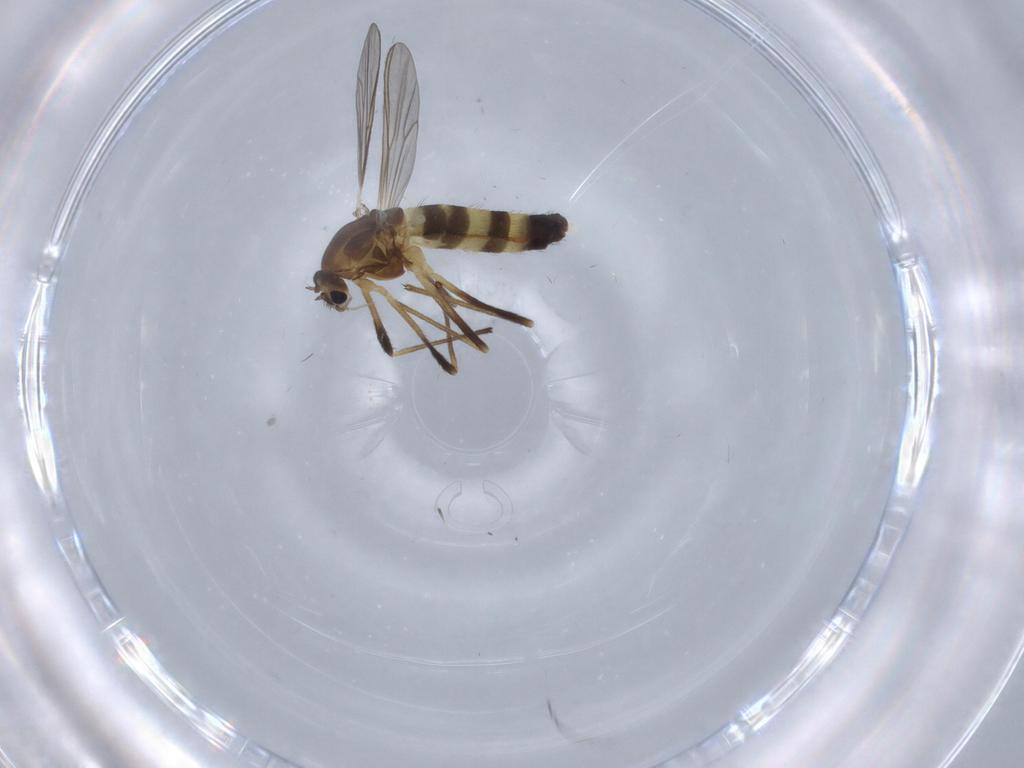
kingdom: Animalia
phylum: Arthropoda
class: Insecta
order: Diptera
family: Chironomidae
